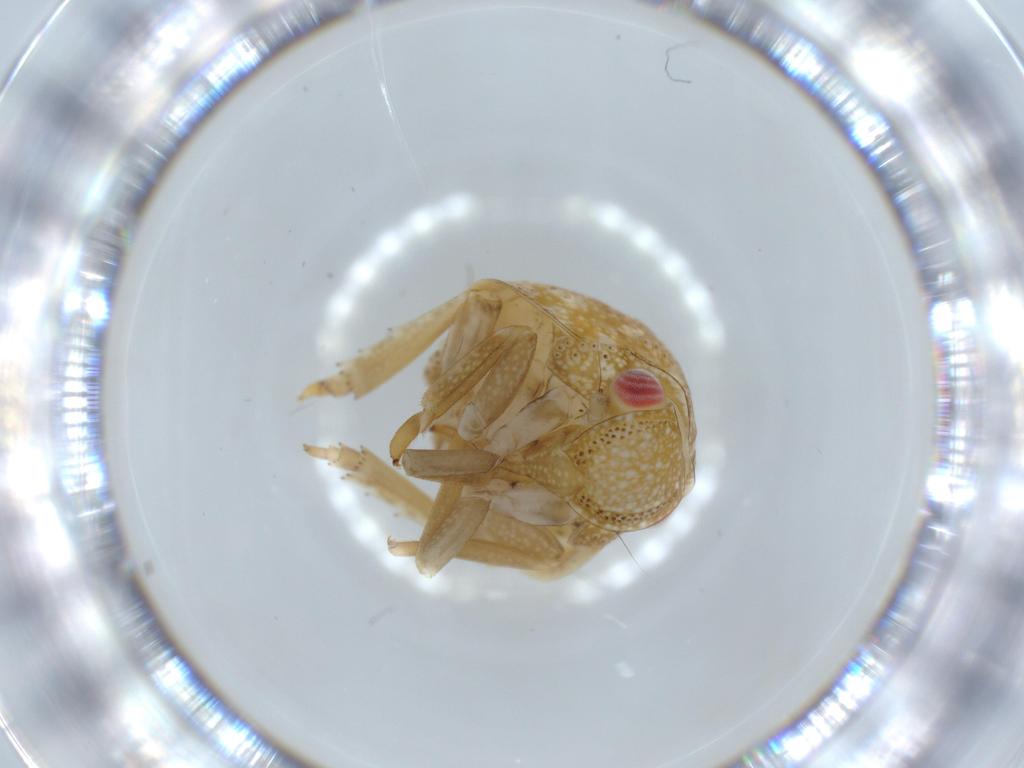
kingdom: Animalia
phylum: Arthropoda
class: Insecta
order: Hemiptera
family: Acanaloniidae
